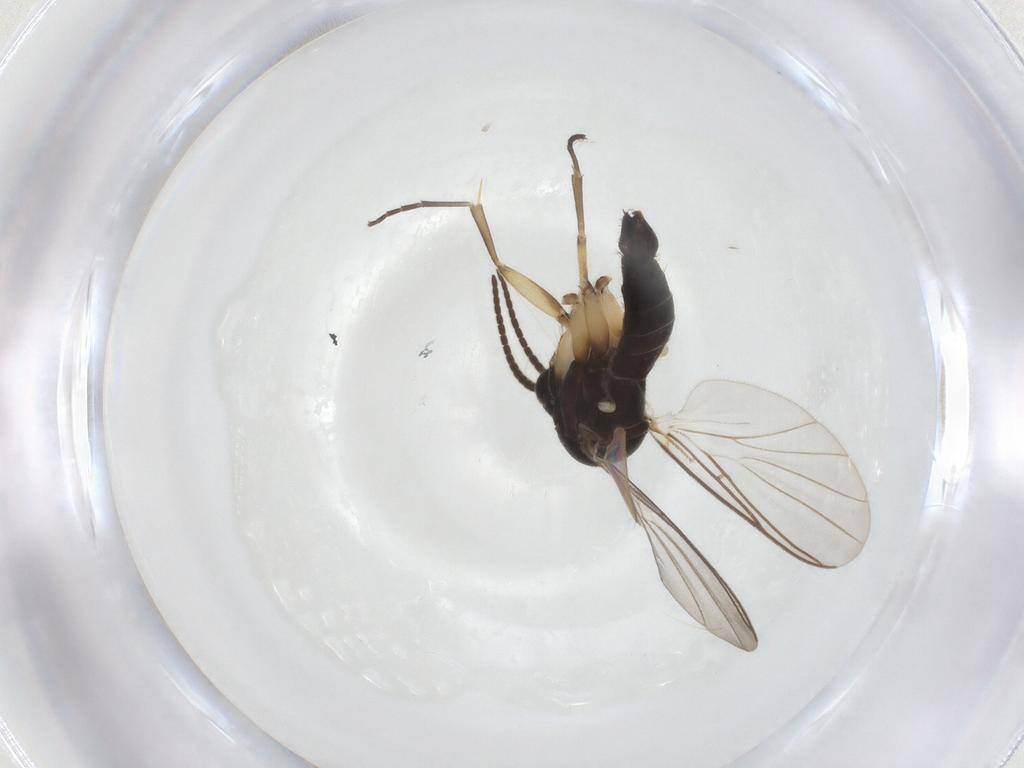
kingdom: Animalia
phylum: Arthropoda
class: Insecta
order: Diptera
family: Mycetophilidae
